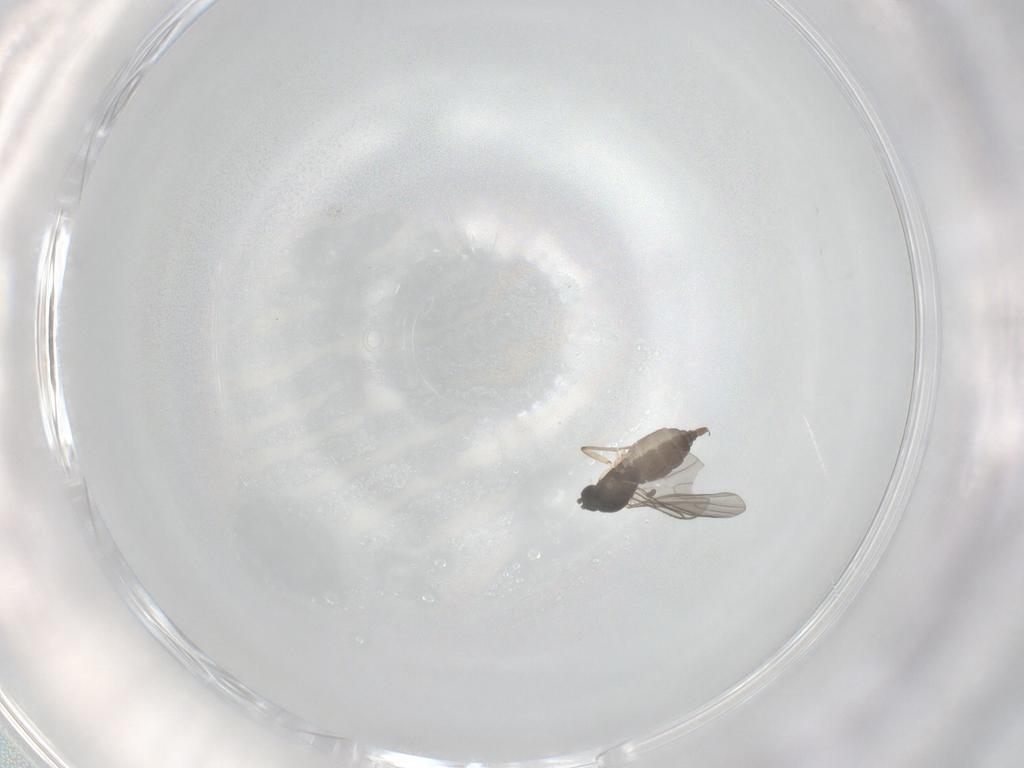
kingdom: Animalia
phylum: Arthropoda
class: Insecta
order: Diptera
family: Sciaridae
